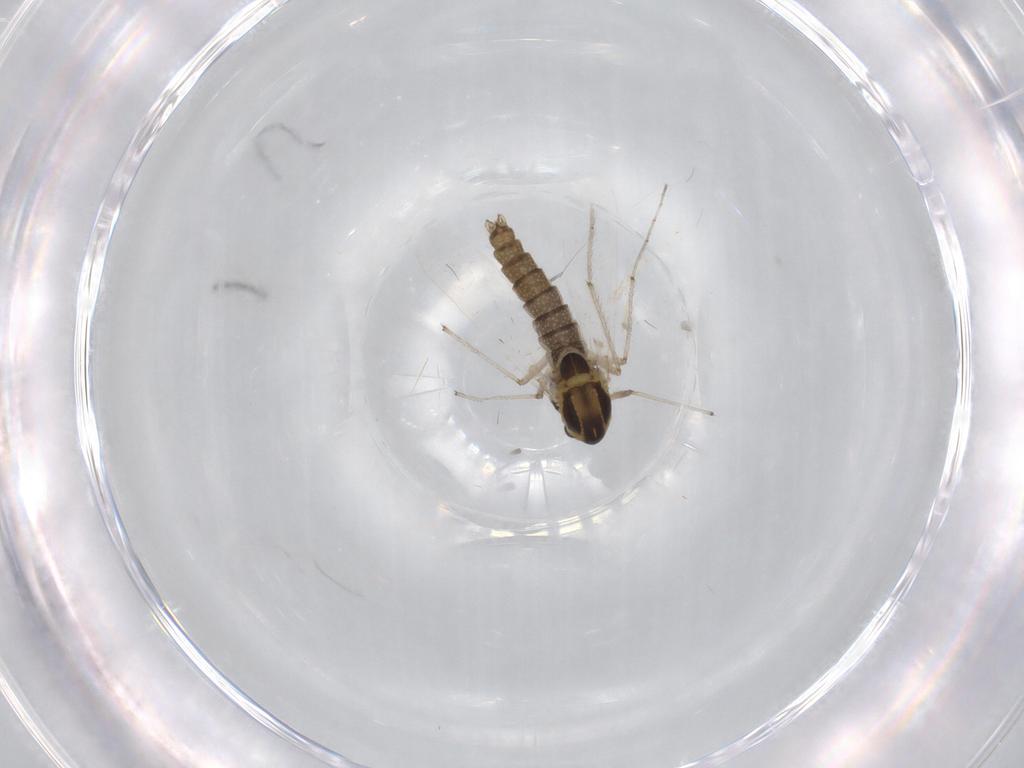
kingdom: Animalia
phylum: Arthropoda
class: Insecta
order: Diptera
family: Chironomidae
